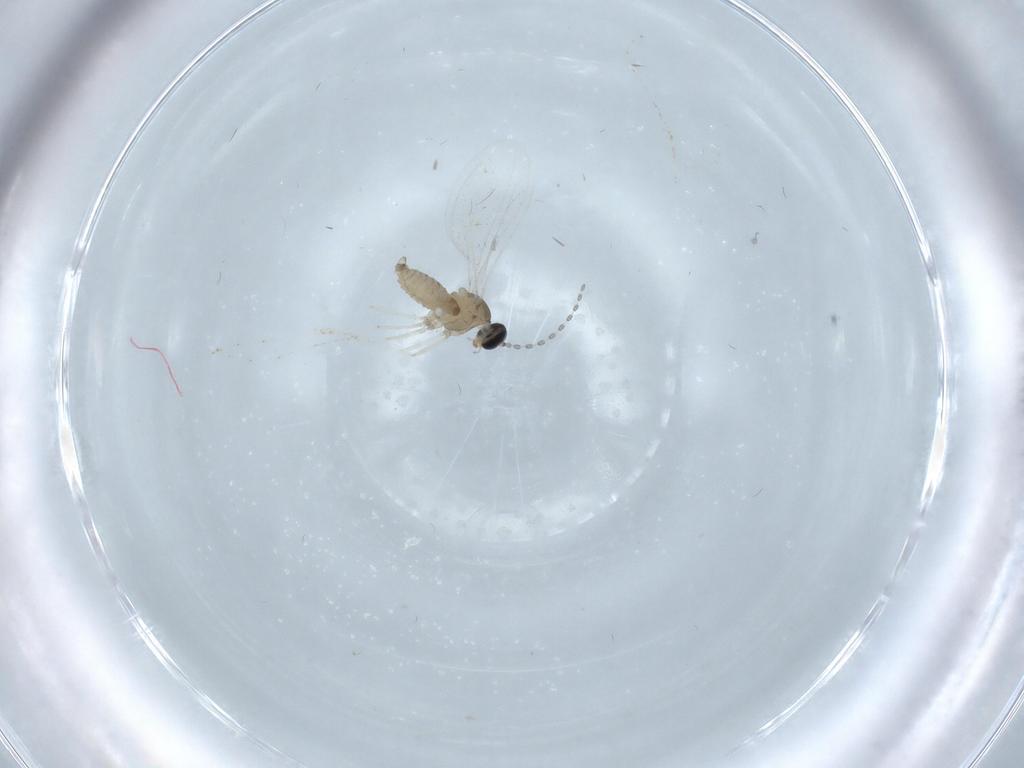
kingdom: Animalia
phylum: Arthropoda
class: Insecta
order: Diptera
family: Cecidomyiidae
